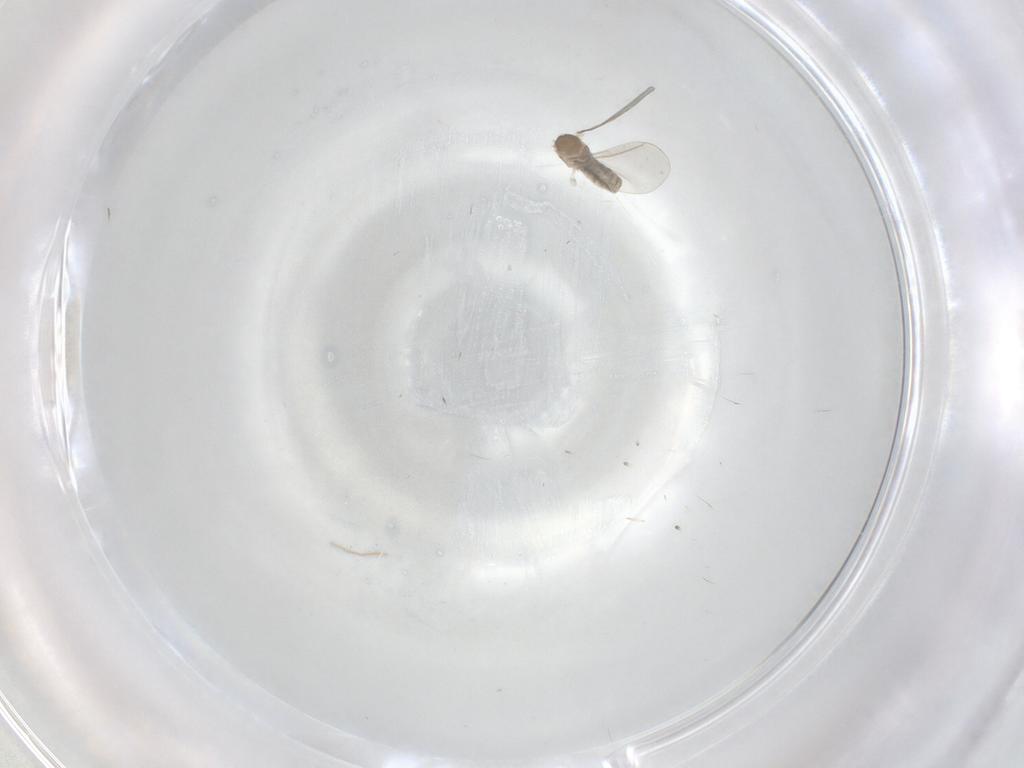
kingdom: Animalia
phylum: Arthropoda
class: Insecta
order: Diptera
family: Cecidomyiidae
